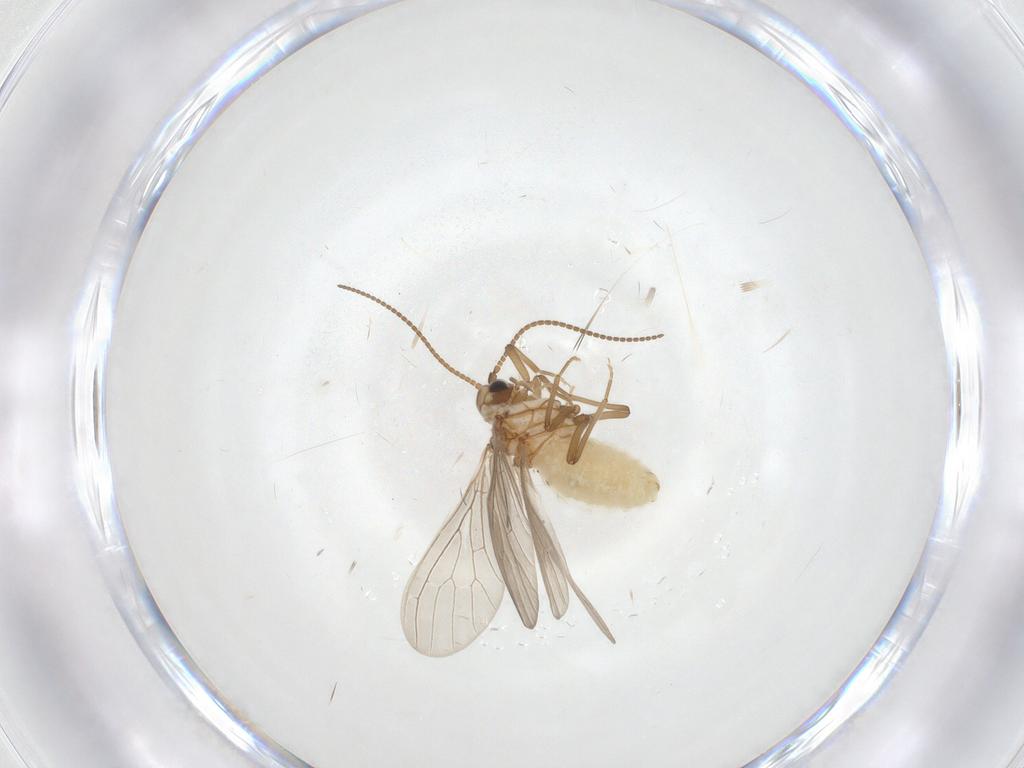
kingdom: Animalia
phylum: Arthropoda
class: Insecta
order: Neuroptera
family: Coniopterygidae
